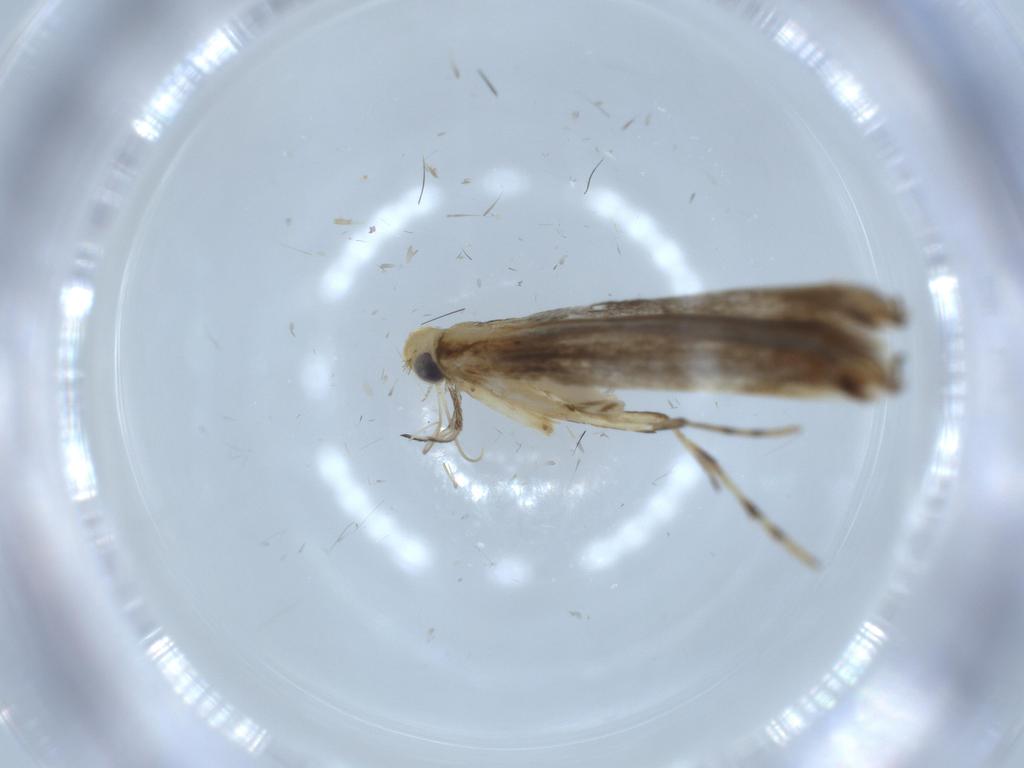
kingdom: Animalia
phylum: Arthropoda
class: Insecta
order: Lepidoptera
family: Gracillariidae
